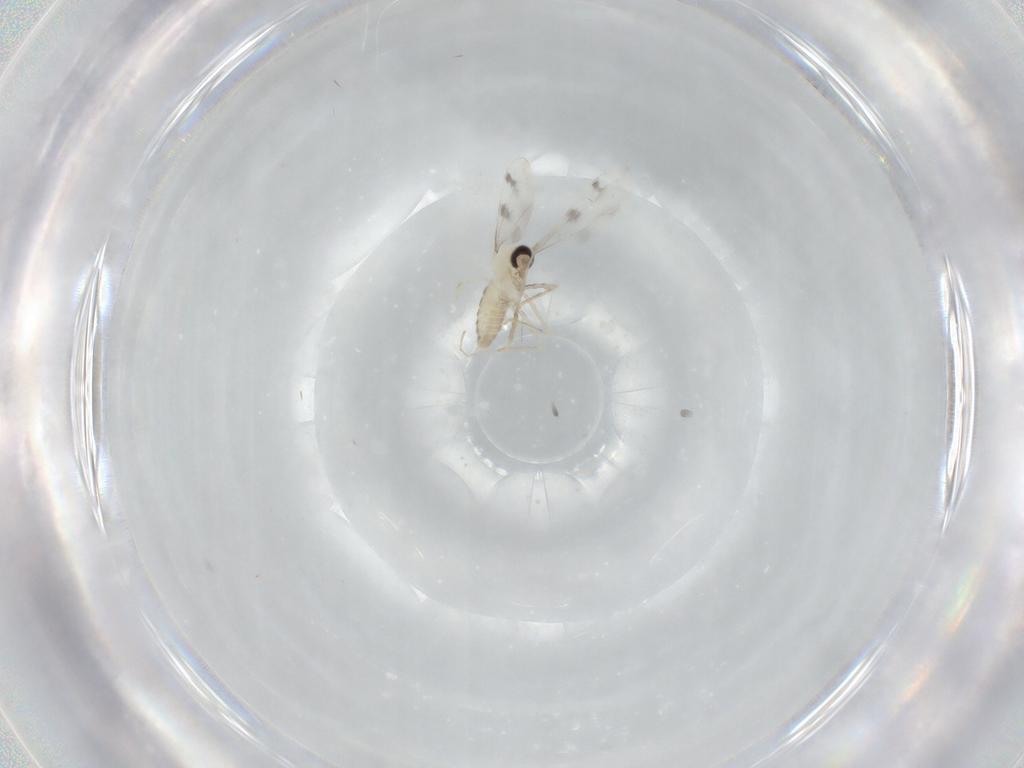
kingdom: Animalia
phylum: Arthropoda
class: Insecta
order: Diptera
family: Cecidomyiidae
